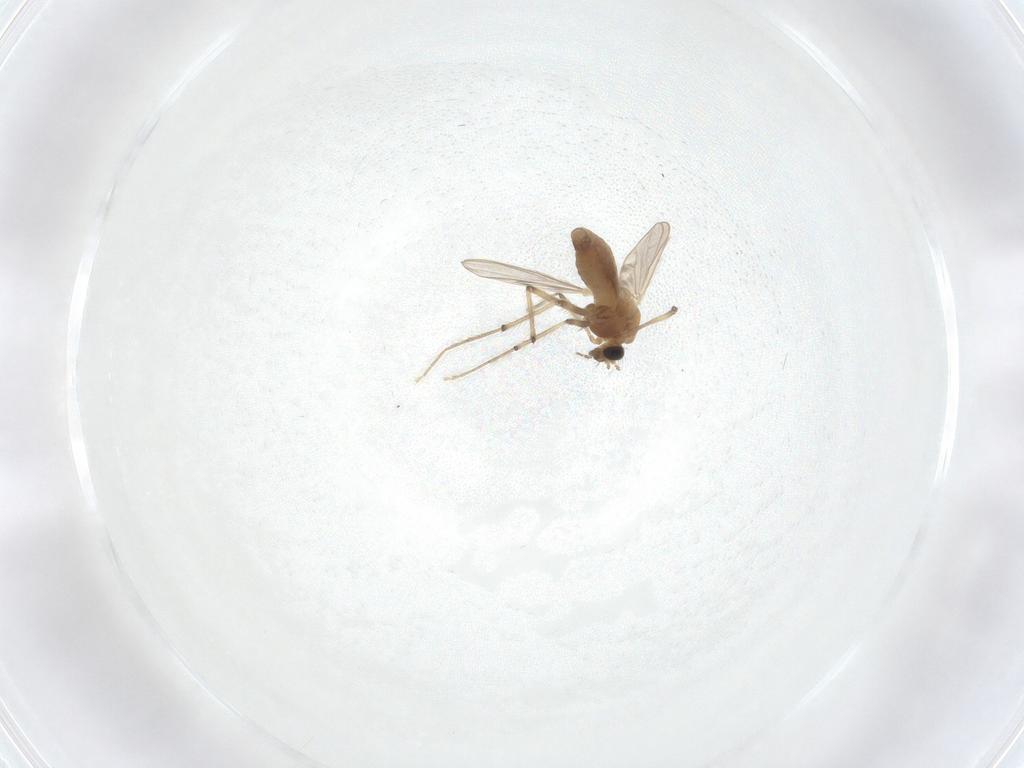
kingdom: Animalia
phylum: Arthropoda
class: Insecta
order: Diptera
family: Chironomidae
